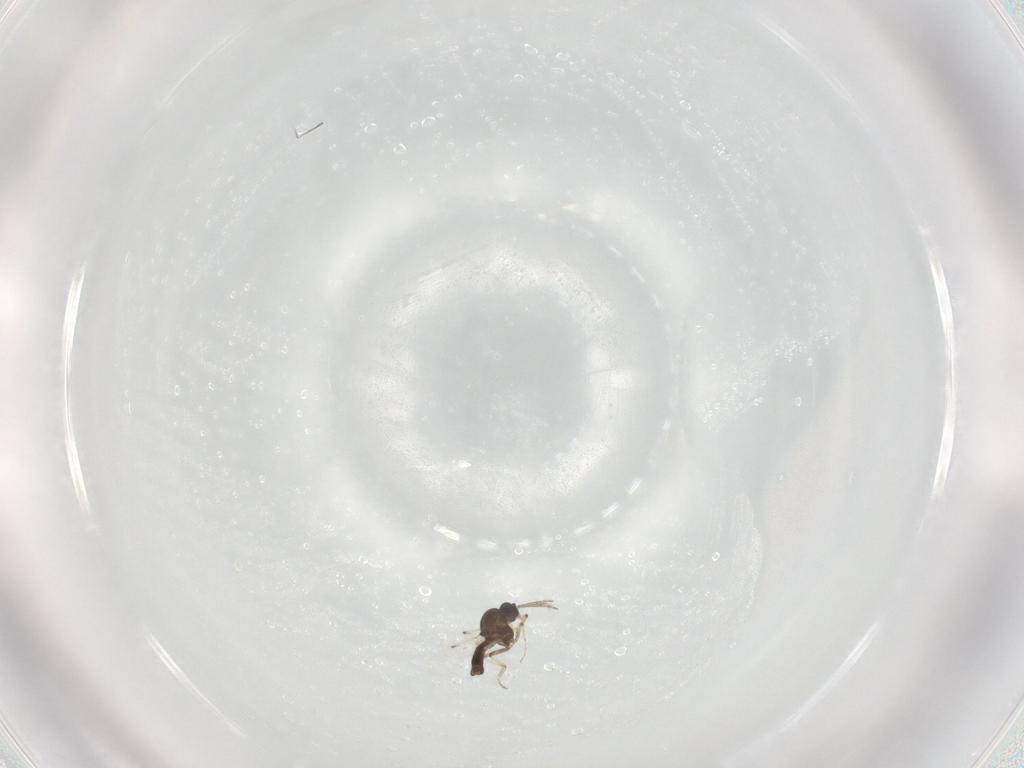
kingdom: Animalia
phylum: Arthropoda
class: Insecta
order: Diptera
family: Ceratopogonidae
